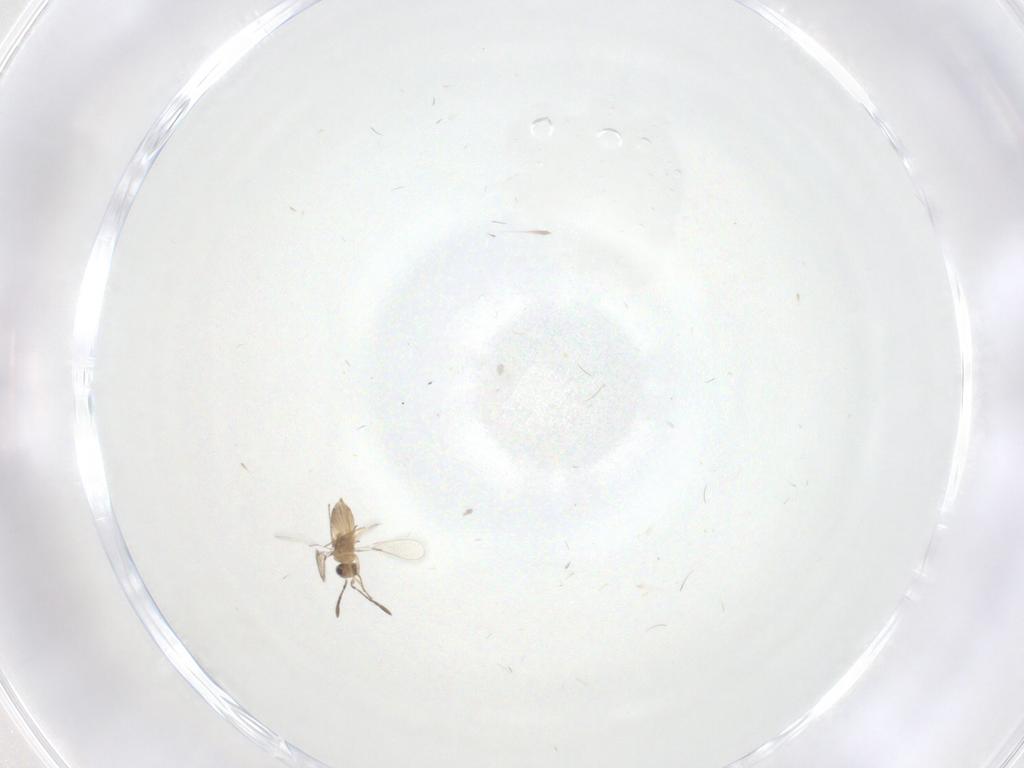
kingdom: Animalia
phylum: Arthropoda
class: Insecta
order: Hymenoptera
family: Mymaridae
